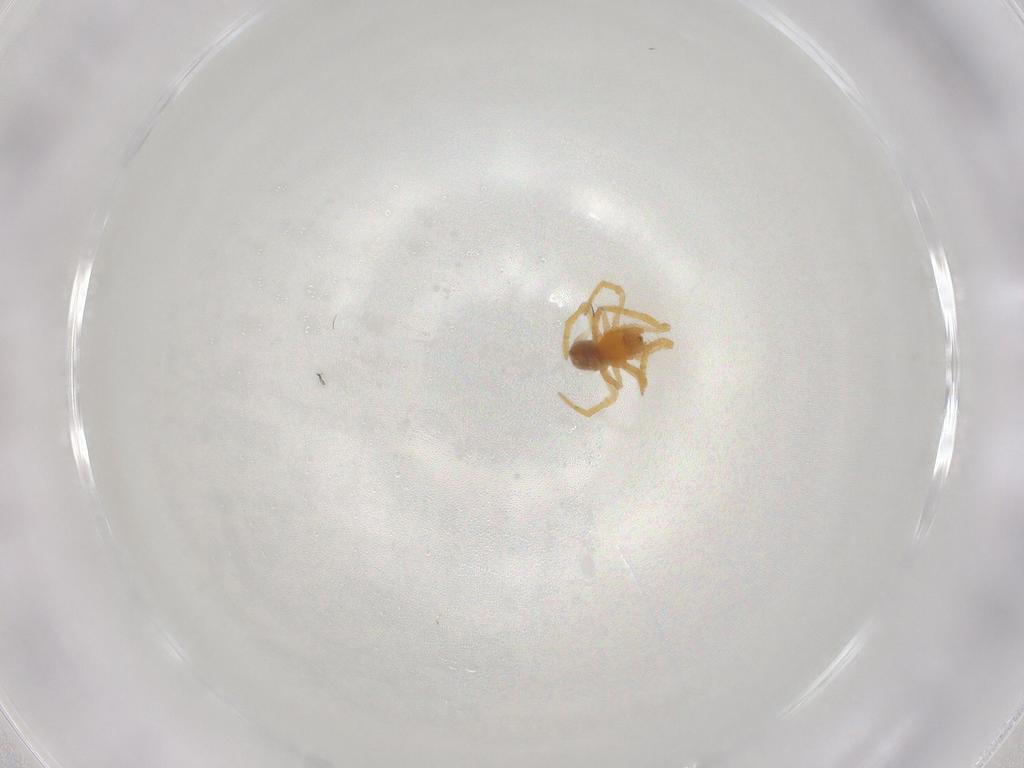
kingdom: Animalia
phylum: Arthropoda
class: Arachnida
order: Araneae
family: Theridiidae
